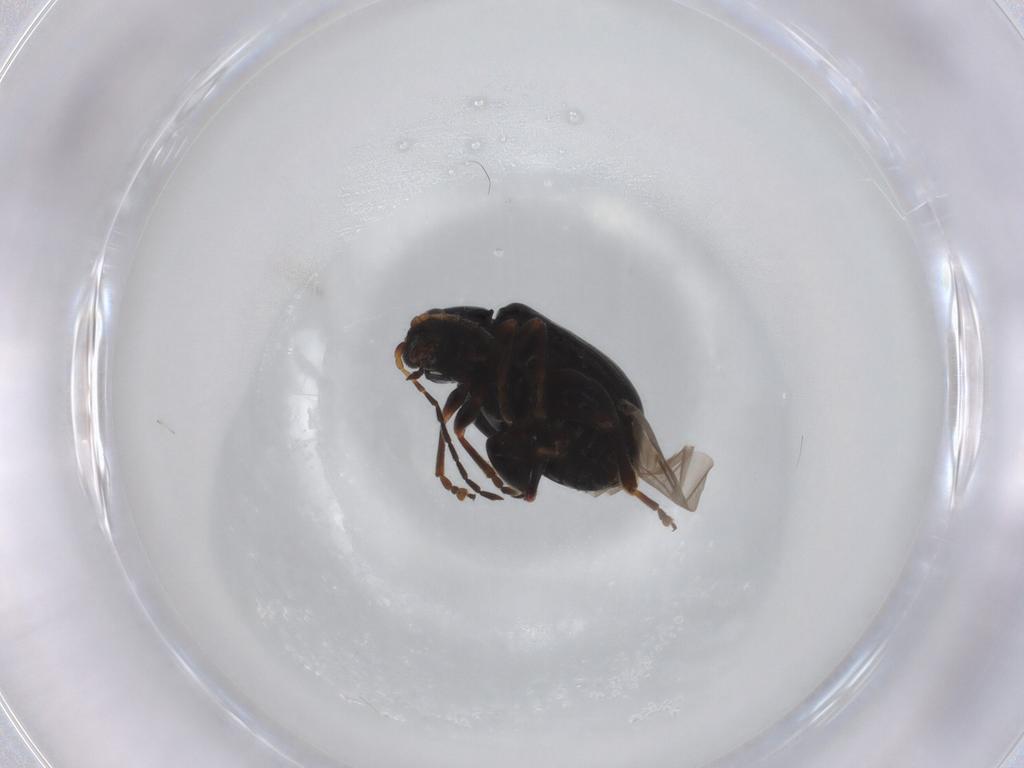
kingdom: Animalia
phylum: Arthropoda
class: Insecta
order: Coleoptera
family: Chrysomelidae
